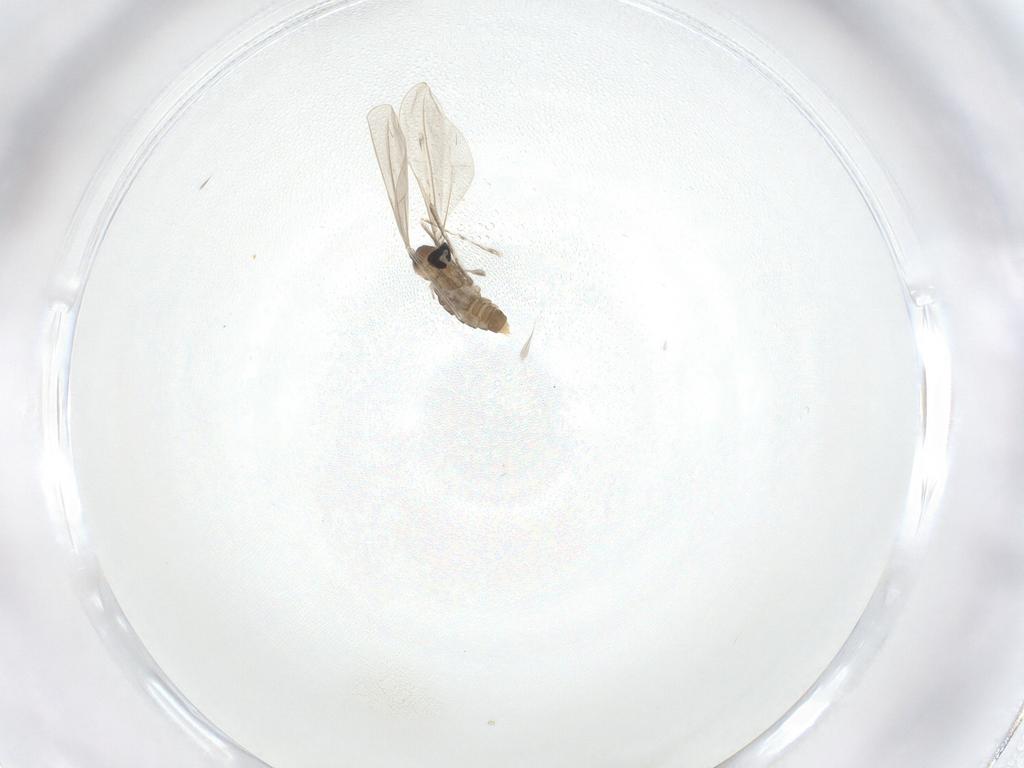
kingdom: Animalia
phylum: Arthropoda
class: Insecta
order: Diptera
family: Cecidomyiidae
